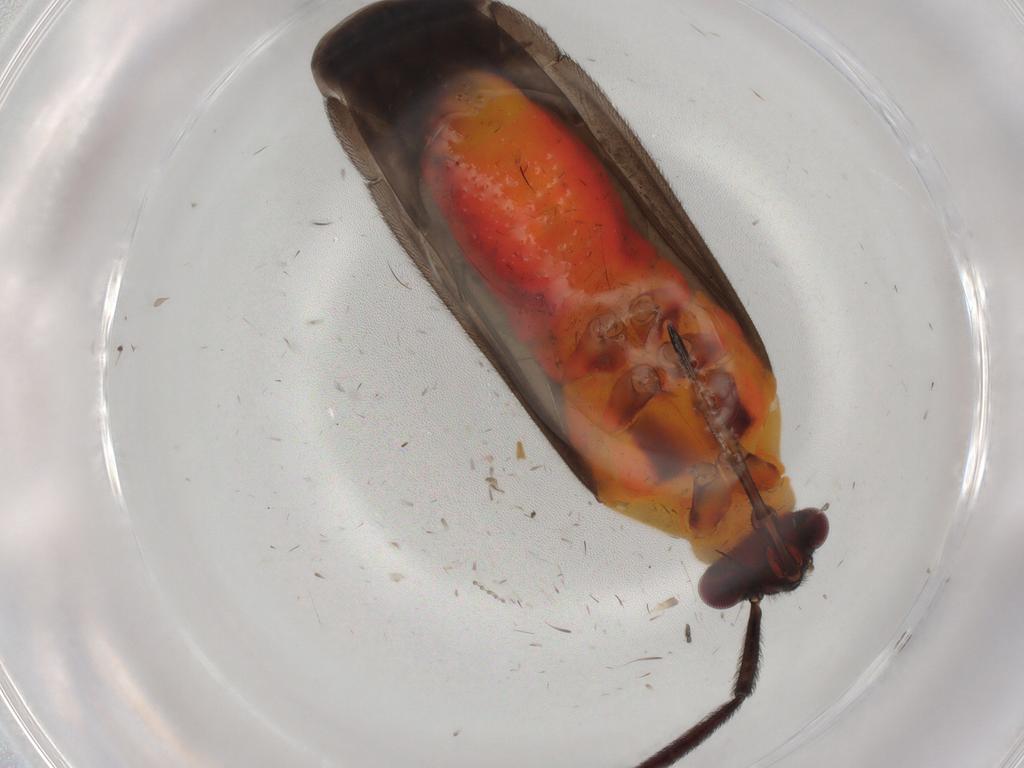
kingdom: Animalia
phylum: Arthropoda
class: Insecta
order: Hemiptera
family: Miridae
